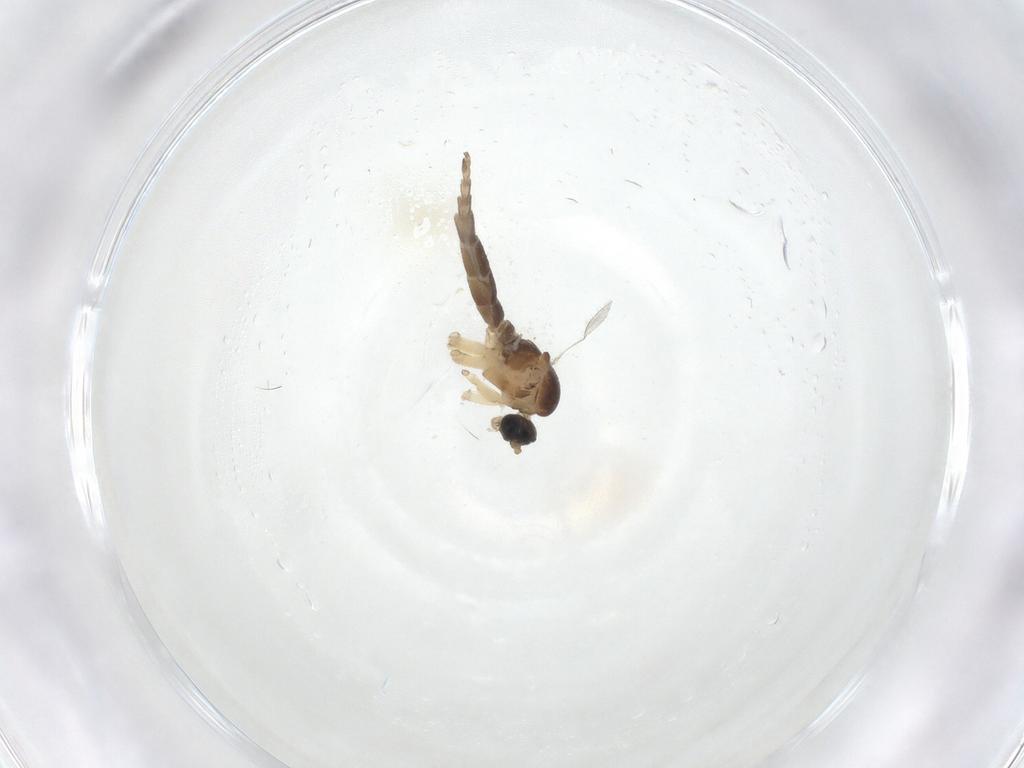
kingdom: Animalia
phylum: Arthropoda
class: Insecta
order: Diptera
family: Sciaridae
